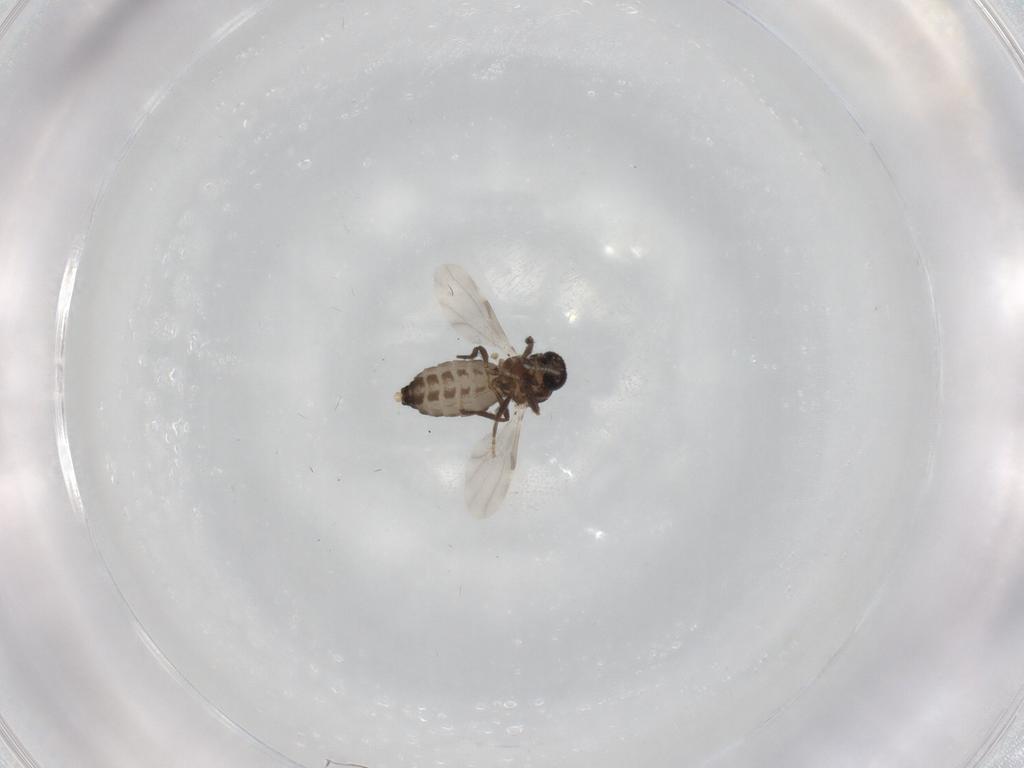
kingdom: Animalia
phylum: Arthropoda
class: Insecta
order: Diptera
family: Ceratopogonidae
